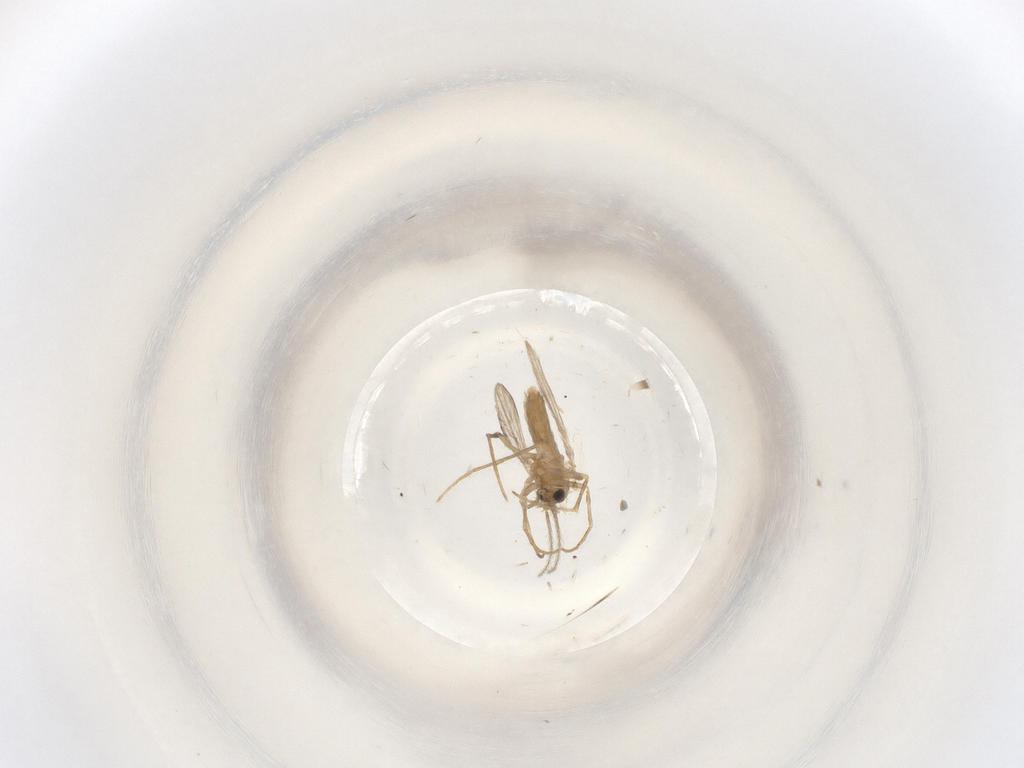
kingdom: Animalia
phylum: Arthropoda
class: Insecta
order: Diptera
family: Psychodidae
